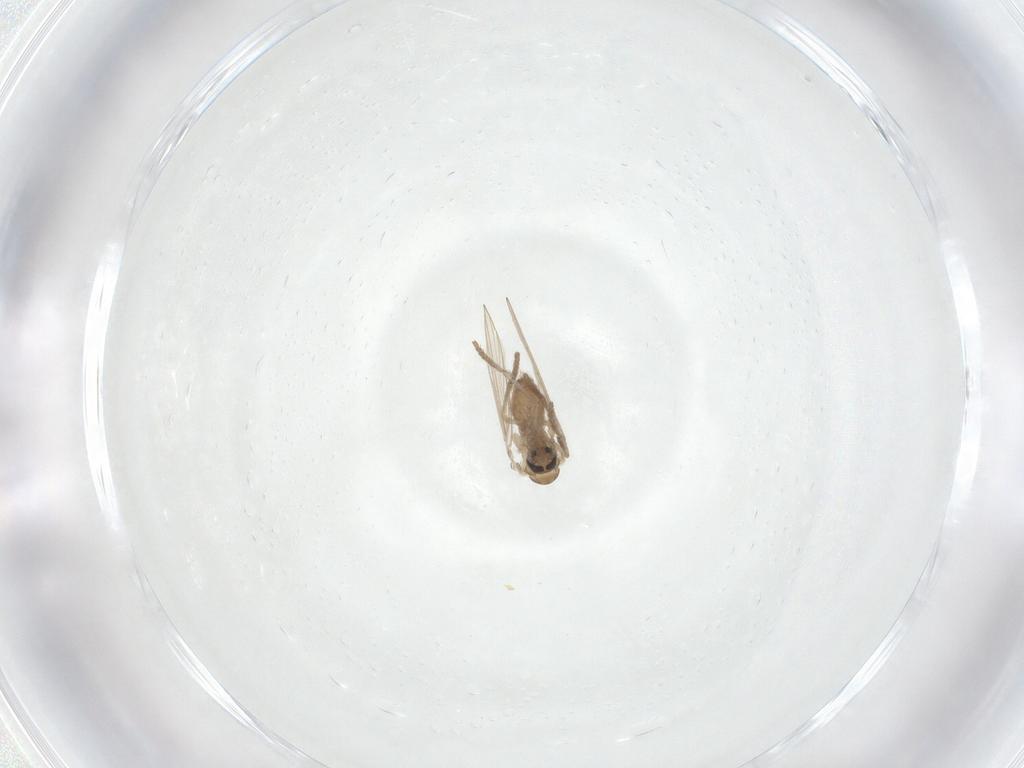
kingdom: Animalia
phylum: Arthropoda
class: Insecta
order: Diptera
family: Psychodidae
